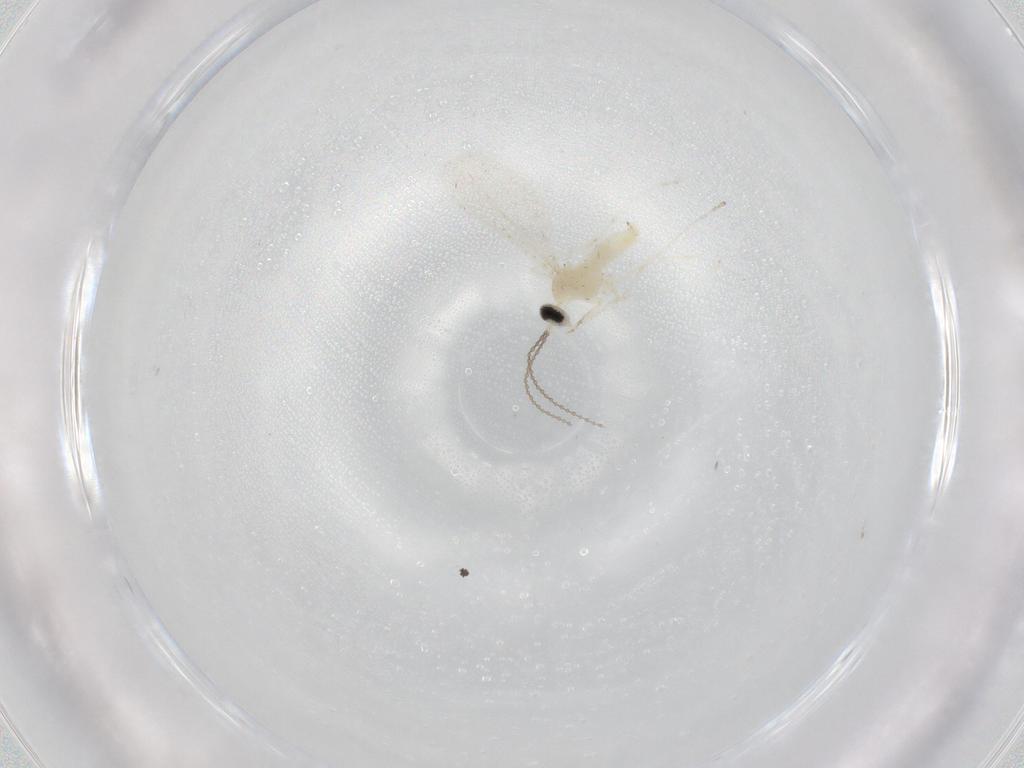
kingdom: Animalia
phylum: Arthropoda
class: Insecta
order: Diptera
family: Cecidomyiidae
